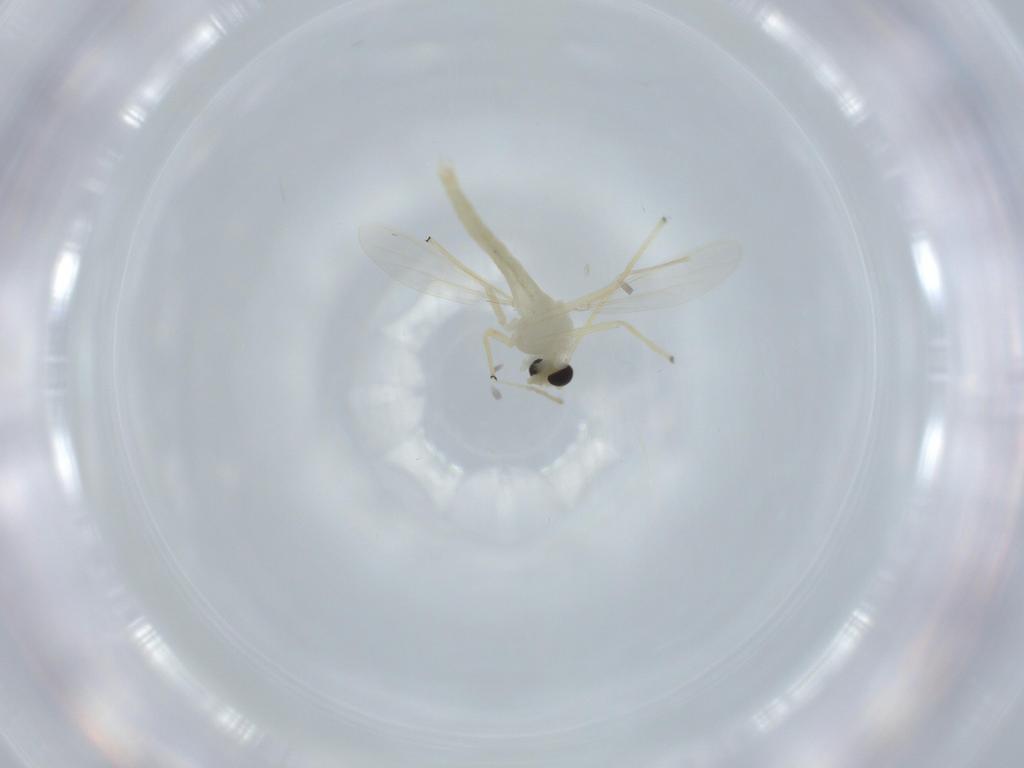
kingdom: Animalia
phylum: Arthropoda
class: Insecta
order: Diptera
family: Chironomidae
